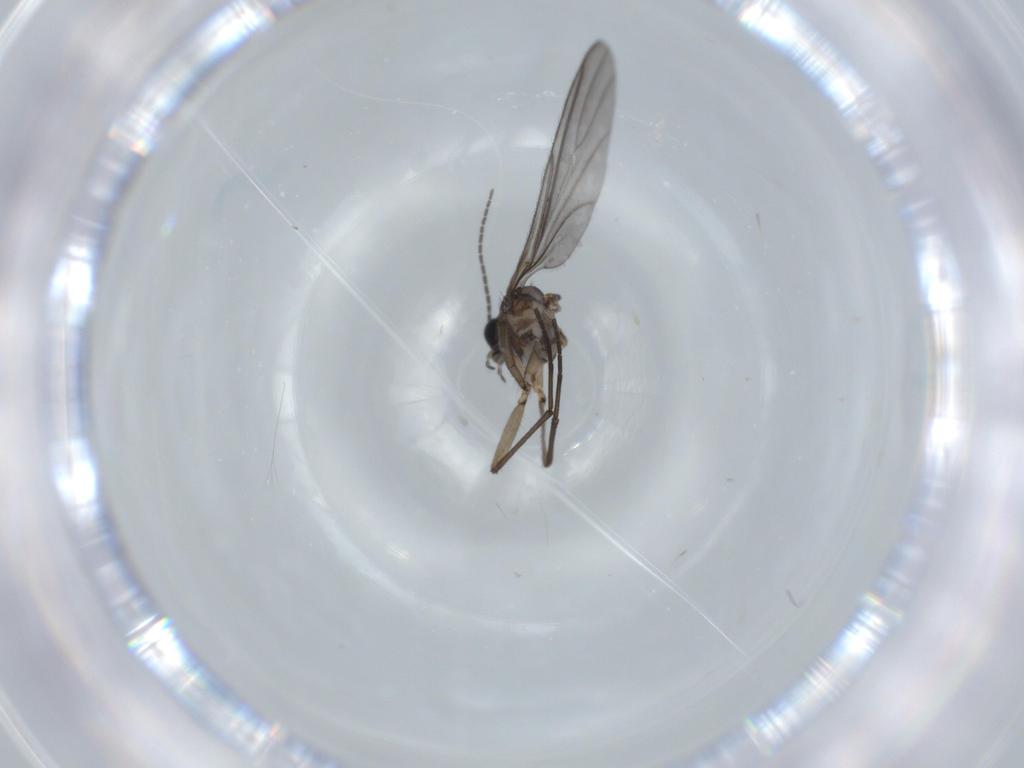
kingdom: Animalia
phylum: Arthropoda
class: Insecta
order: Diptera
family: Sciaridae
